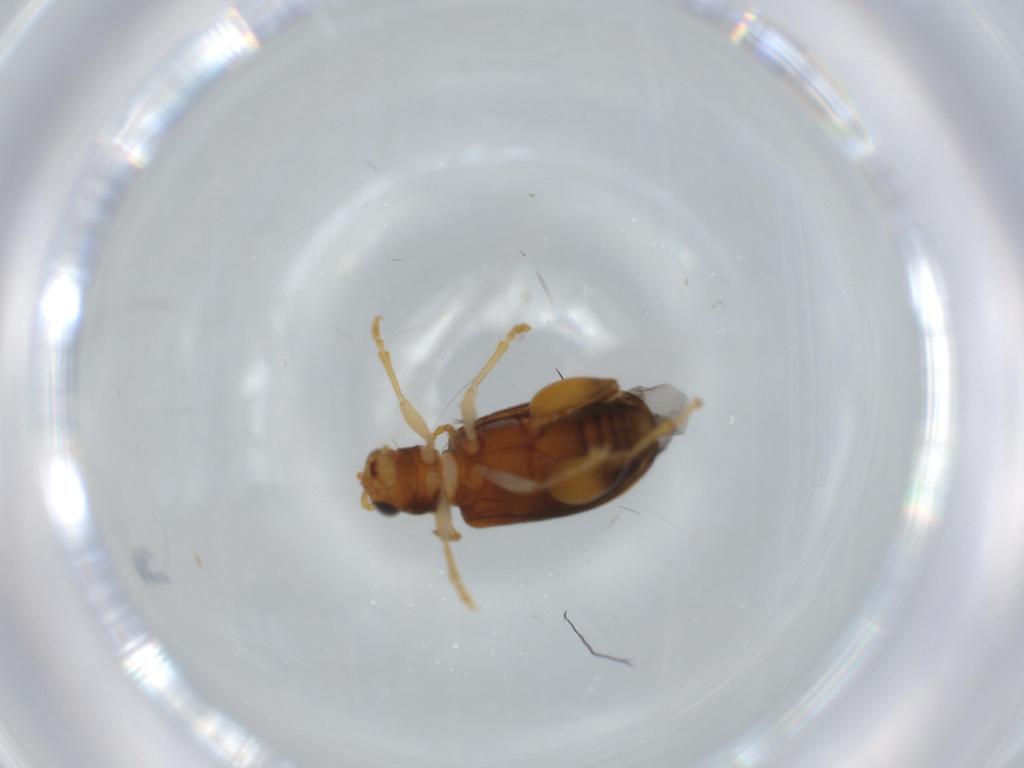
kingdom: Animalia
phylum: Arthropoda
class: Insecta
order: Coleoptera
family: Chrysomelidae
